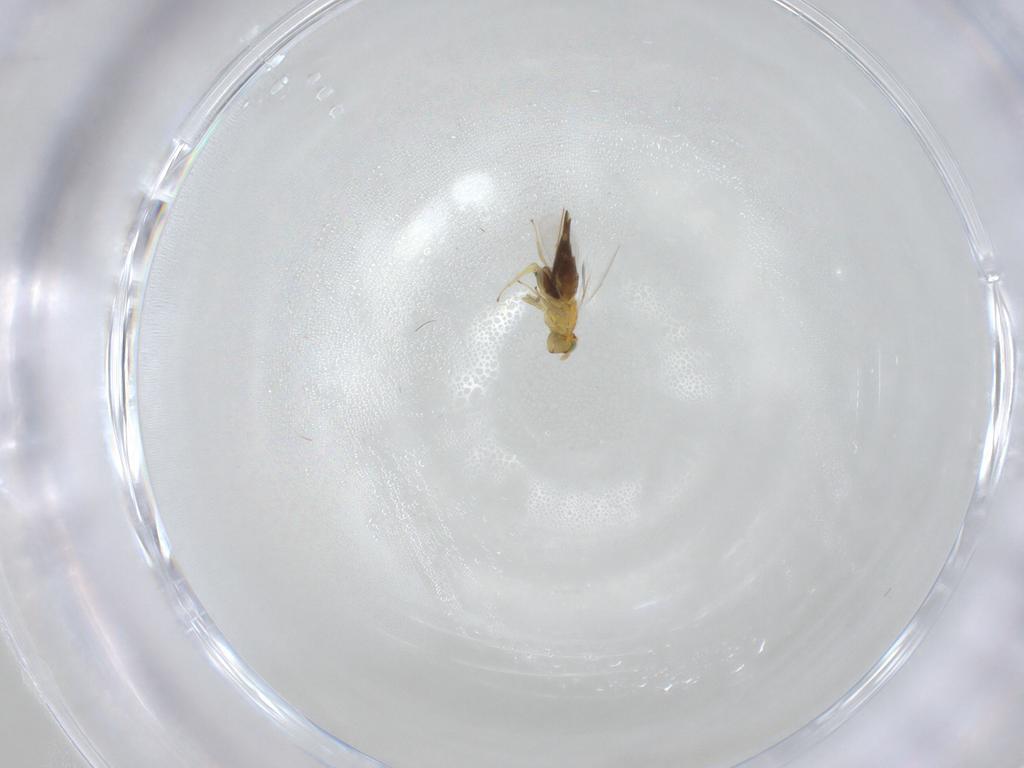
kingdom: Animalia
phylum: Arthropoda
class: Insecta
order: Hymenoptera
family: Aphelinidae
